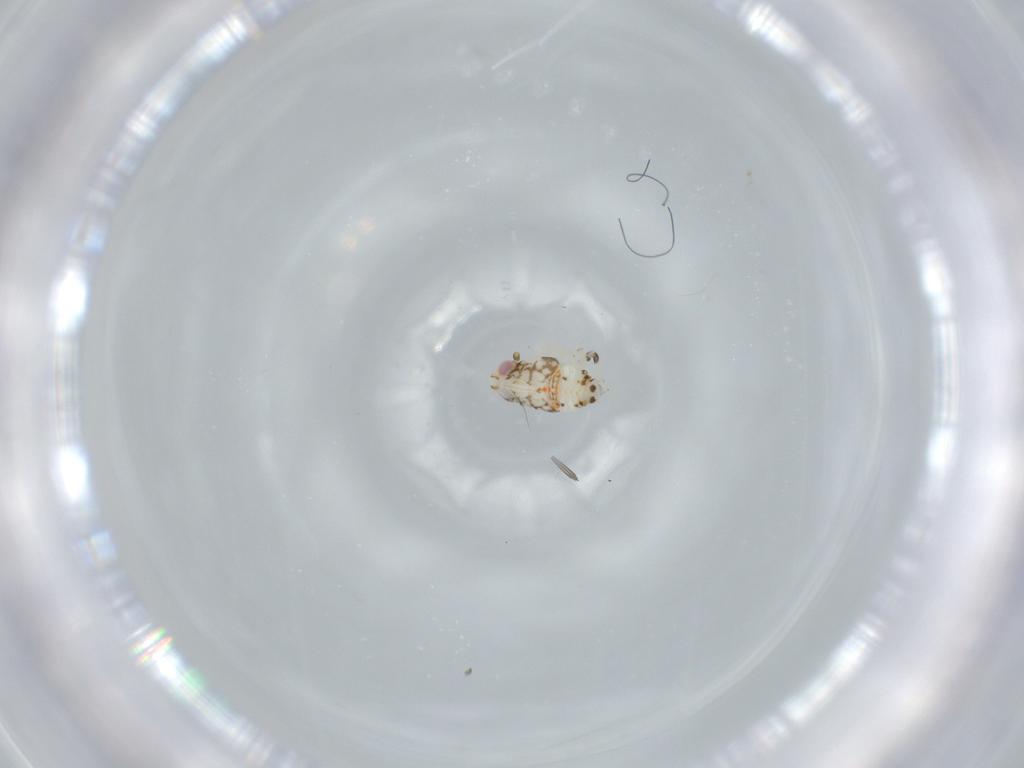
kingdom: Animalia
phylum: Arthropoda
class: Insecta
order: Hemiptera
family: Nogodinidae
